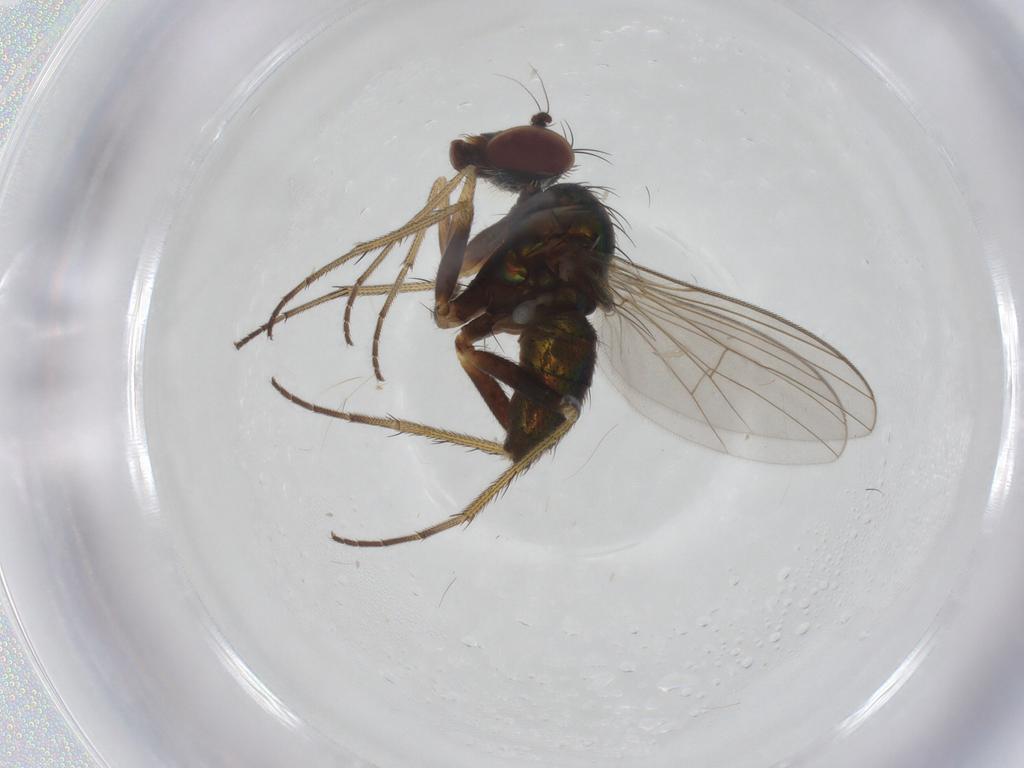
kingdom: Animalia
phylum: Arthropoda
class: Insecta
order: Diptera
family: Dolichopodidae
